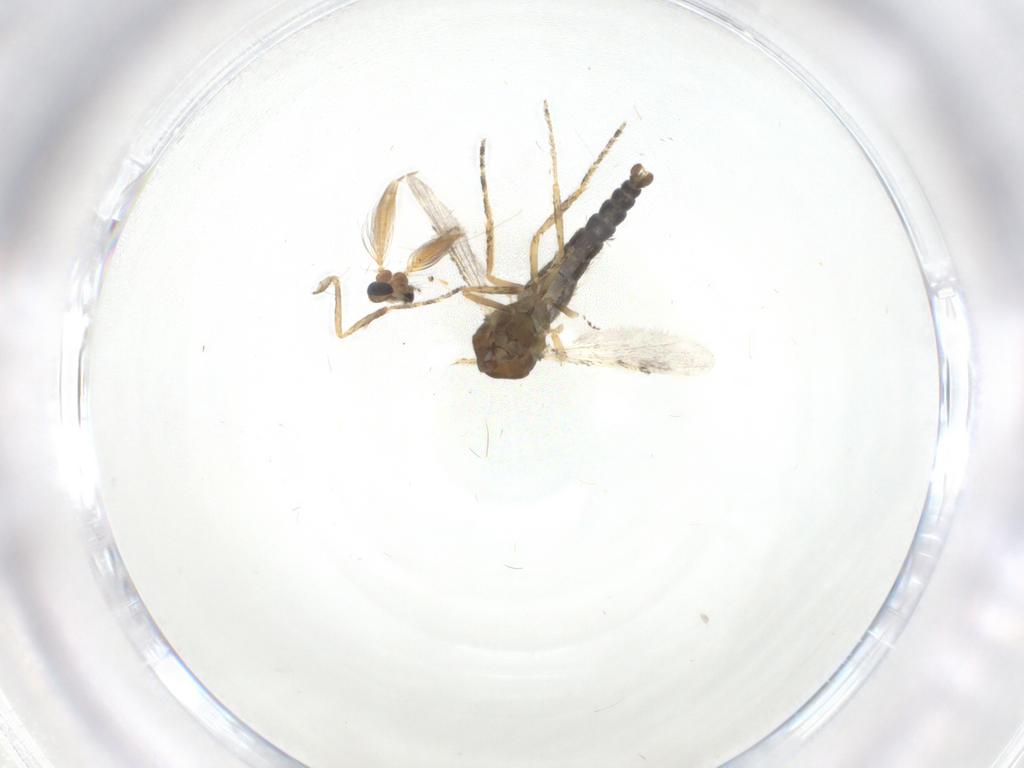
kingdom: Animalia
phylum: Arthropoda
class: Insecta
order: Diptera
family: Ceratopogonidae
